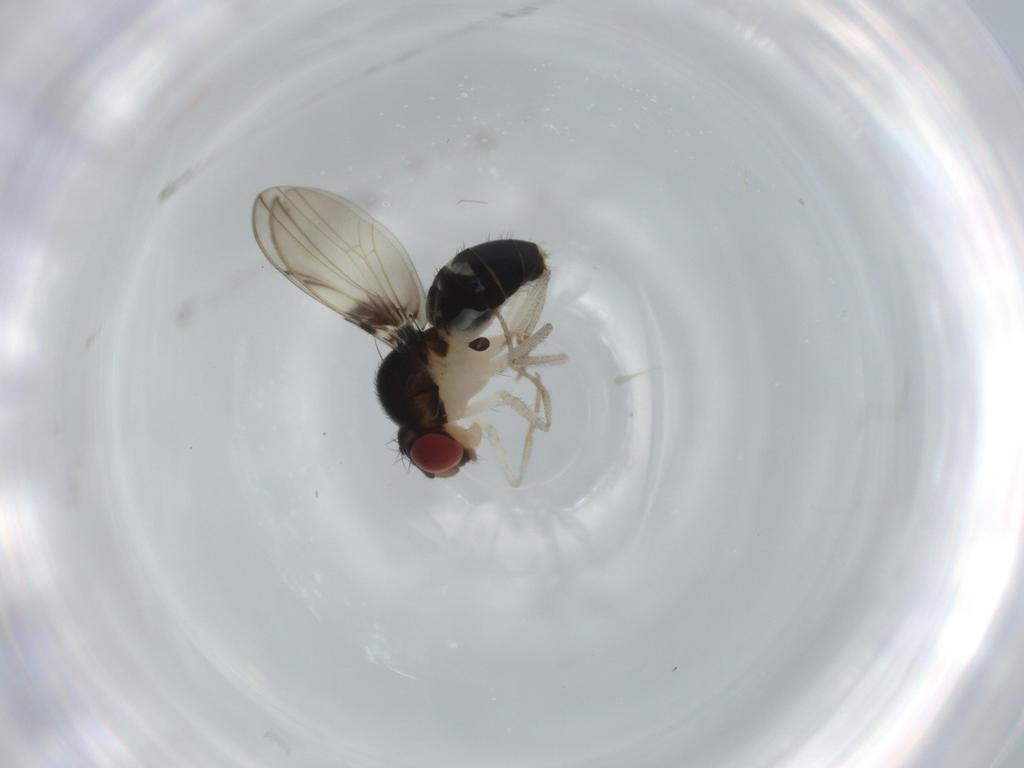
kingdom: Animalia
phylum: Arthropoda
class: Insecta
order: Diptera
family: Drosophilidae
